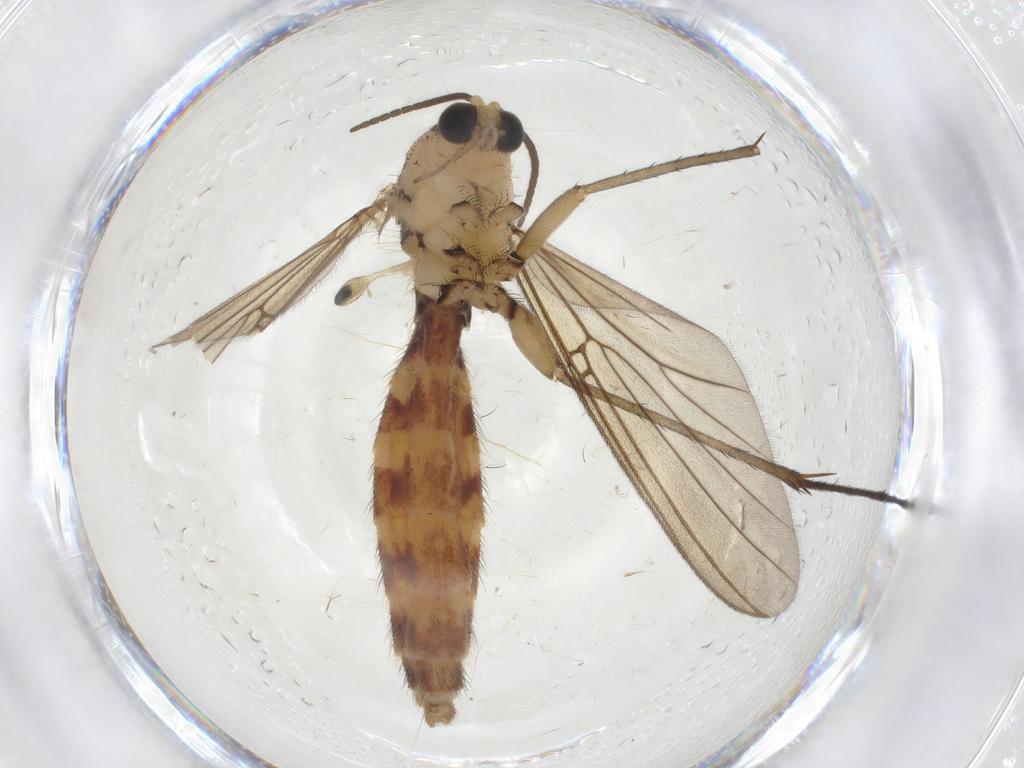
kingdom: Animalia
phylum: Arthropoda
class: Insecta
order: Diptera
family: Mycetophilidae
